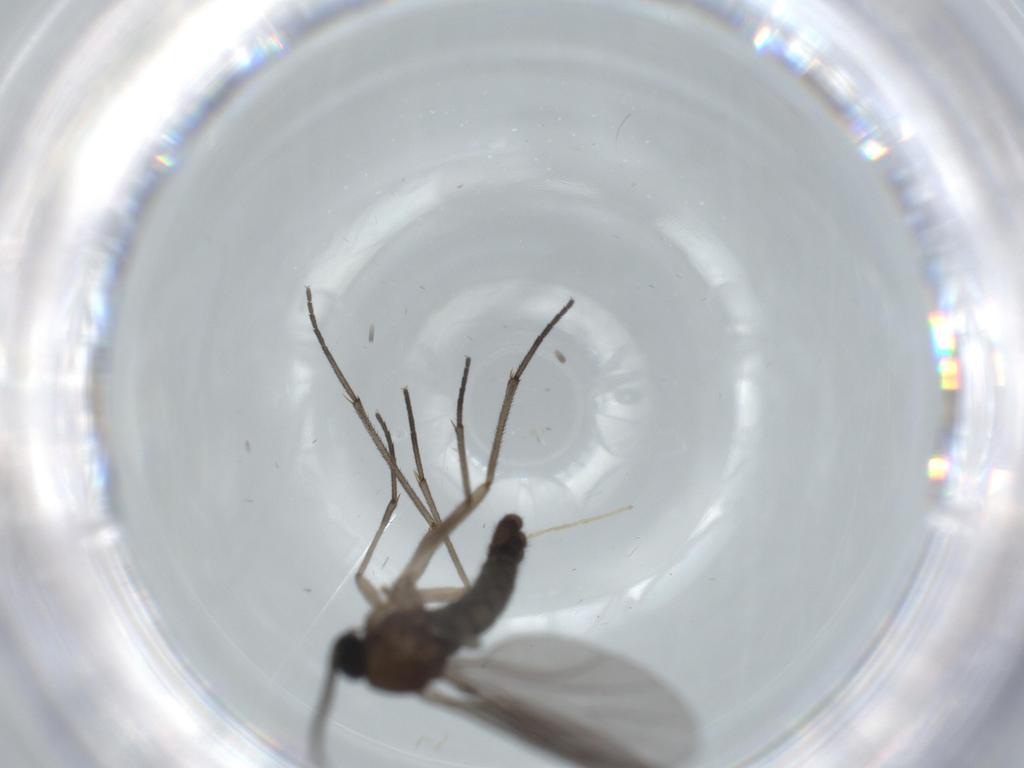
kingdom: Animalia
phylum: Arthropoda
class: Insecta
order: Diptera
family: Sciaridae
